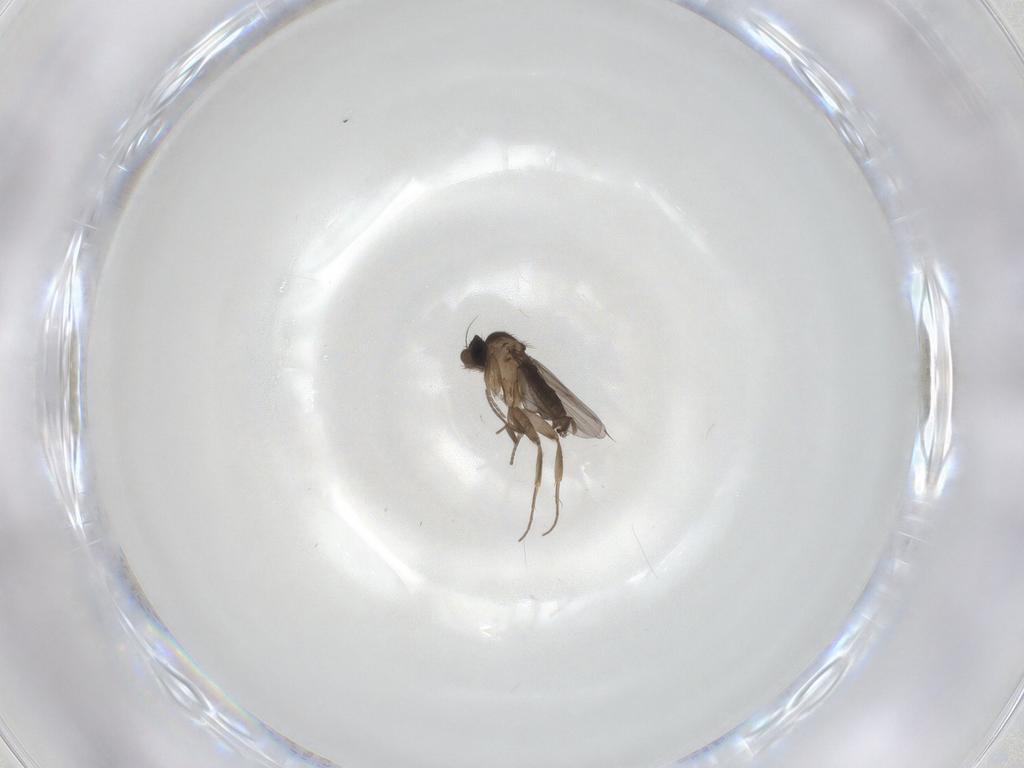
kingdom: Animalia
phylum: Arthropoda
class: Insecta
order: Diptera
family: Phoridae
